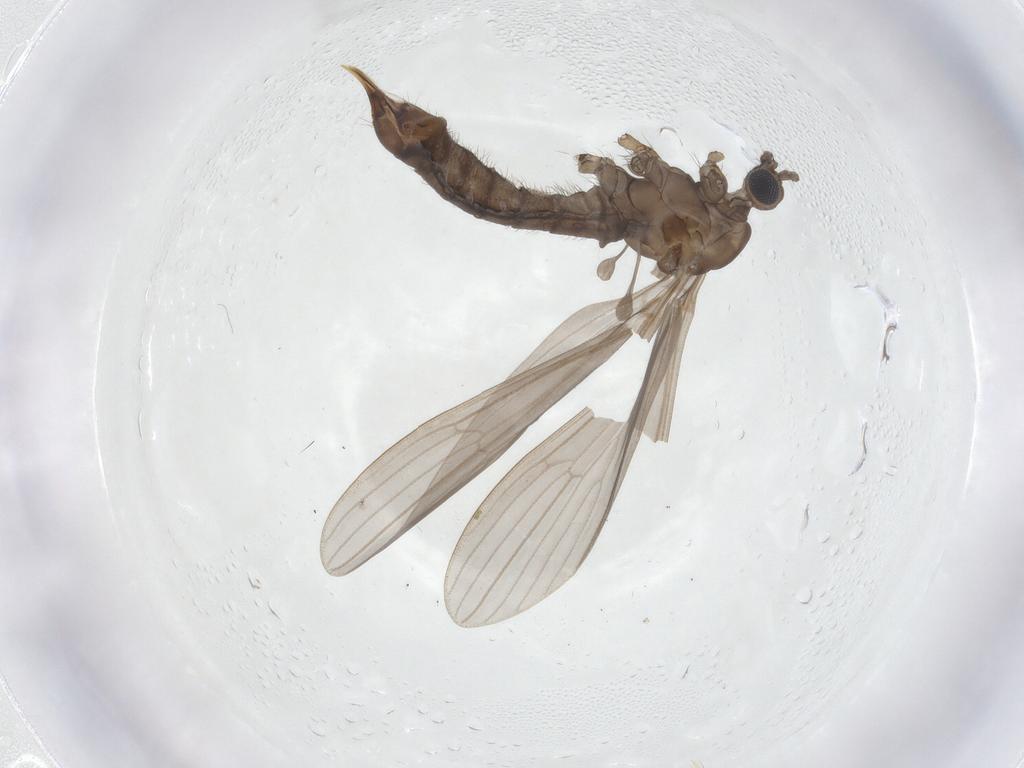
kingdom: Animalia
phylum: Arthropoda
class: Insecta
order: Diptera
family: Limoniidae
